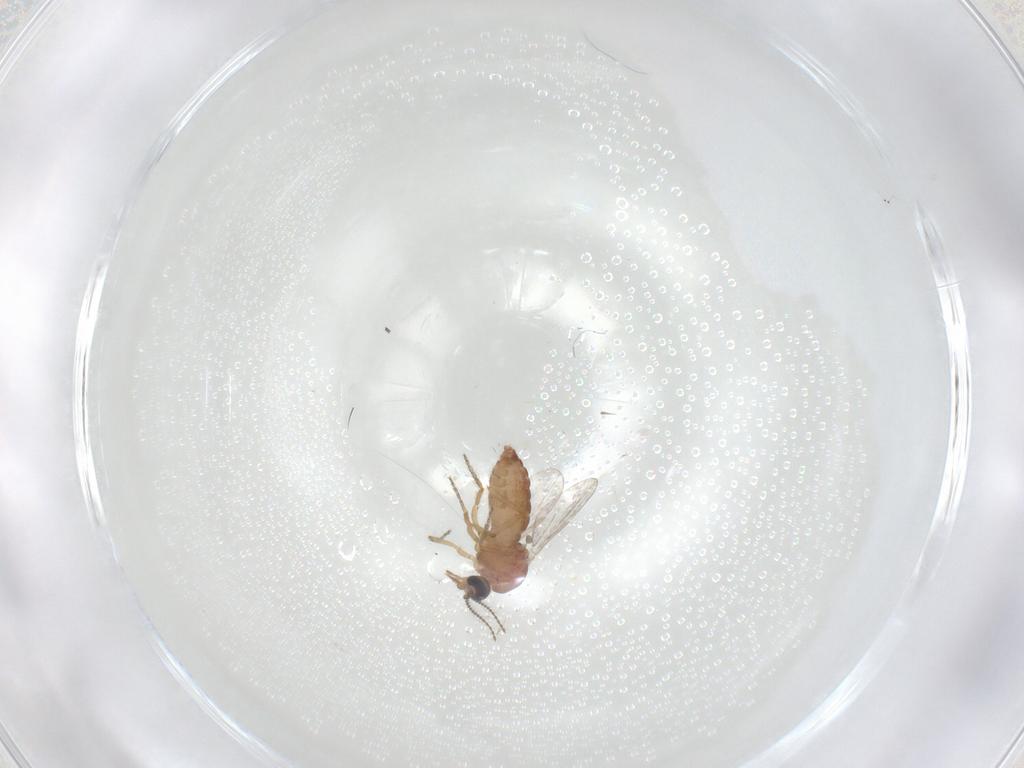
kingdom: Animalia
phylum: Arthropoda
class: Insecta
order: Diptera
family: Ceratopogonidae
